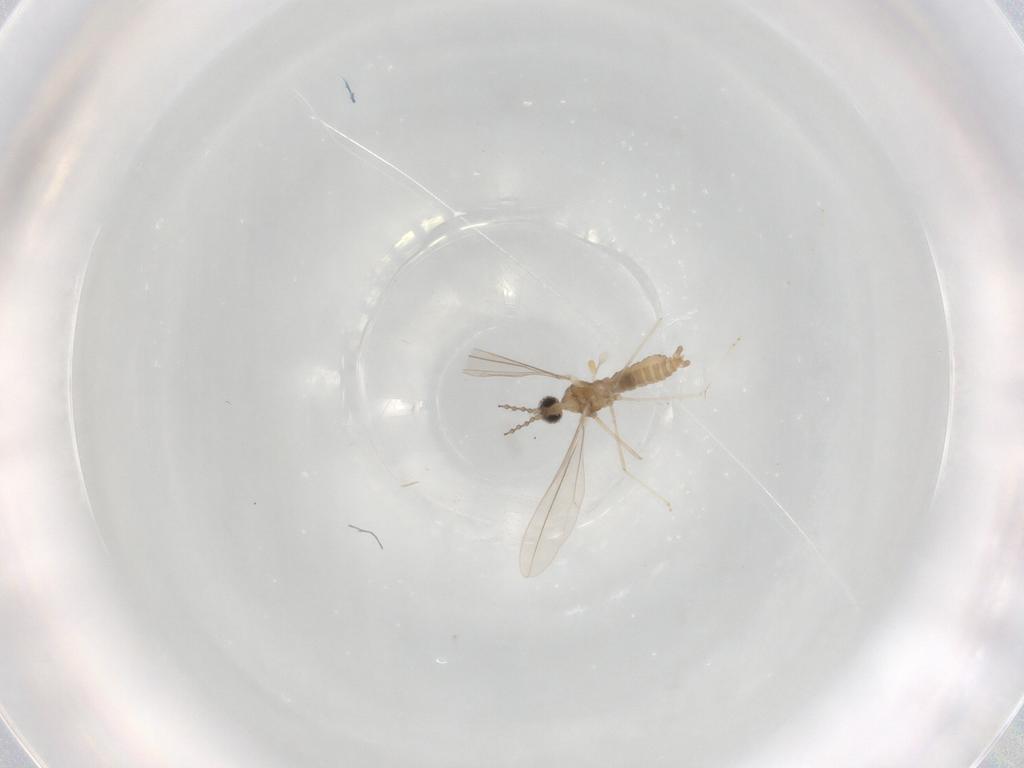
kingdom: Animalia
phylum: Arthropoda
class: Insecta
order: Diptera
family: Cecidomyiidae
